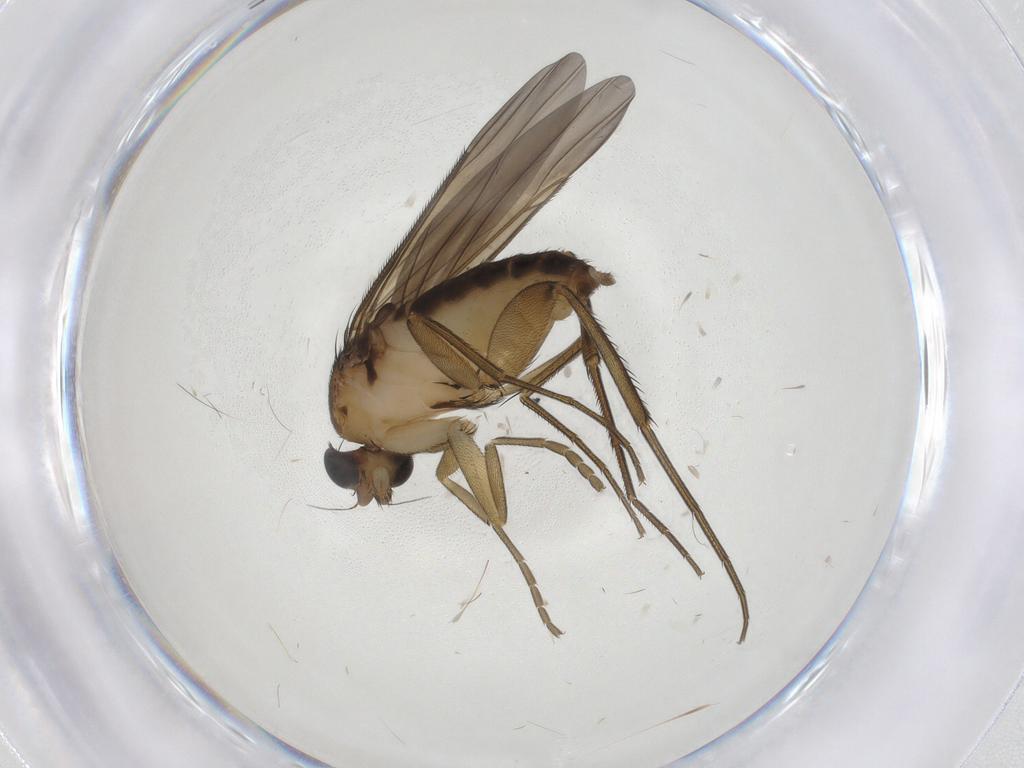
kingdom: Animalia
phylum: Arthropoda
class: Insecta
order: Diptera
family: Phoridae
